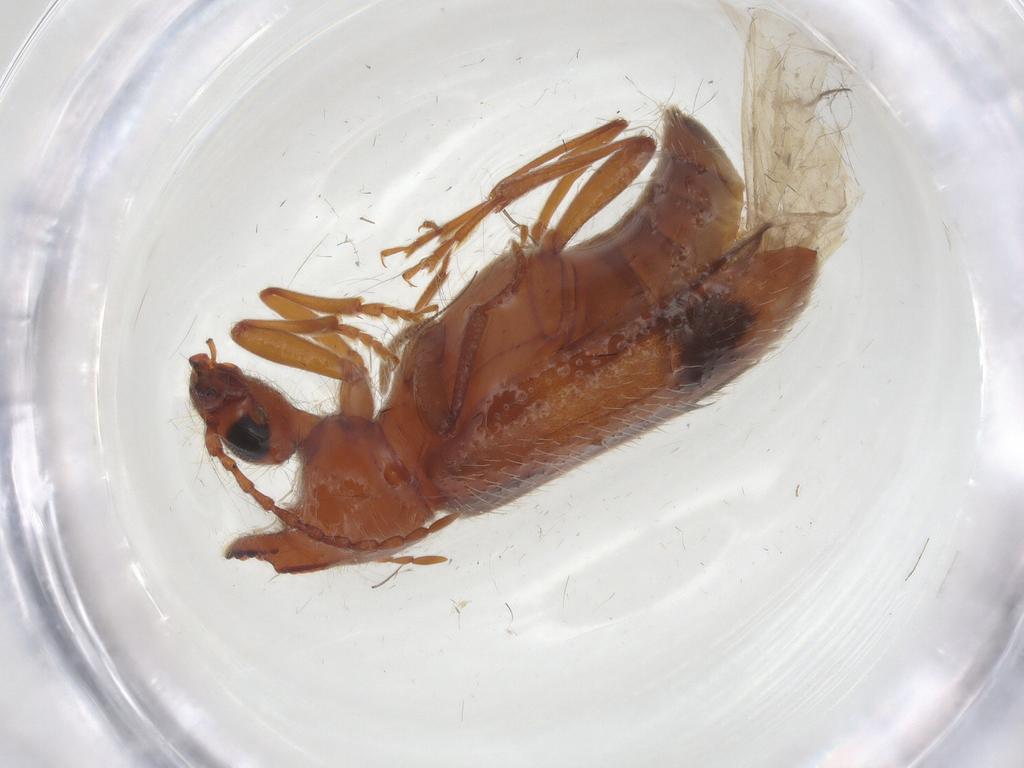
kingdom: Animalia
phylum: Arthropoda
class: Insecta
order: Coleoptera
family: Anthicidae
